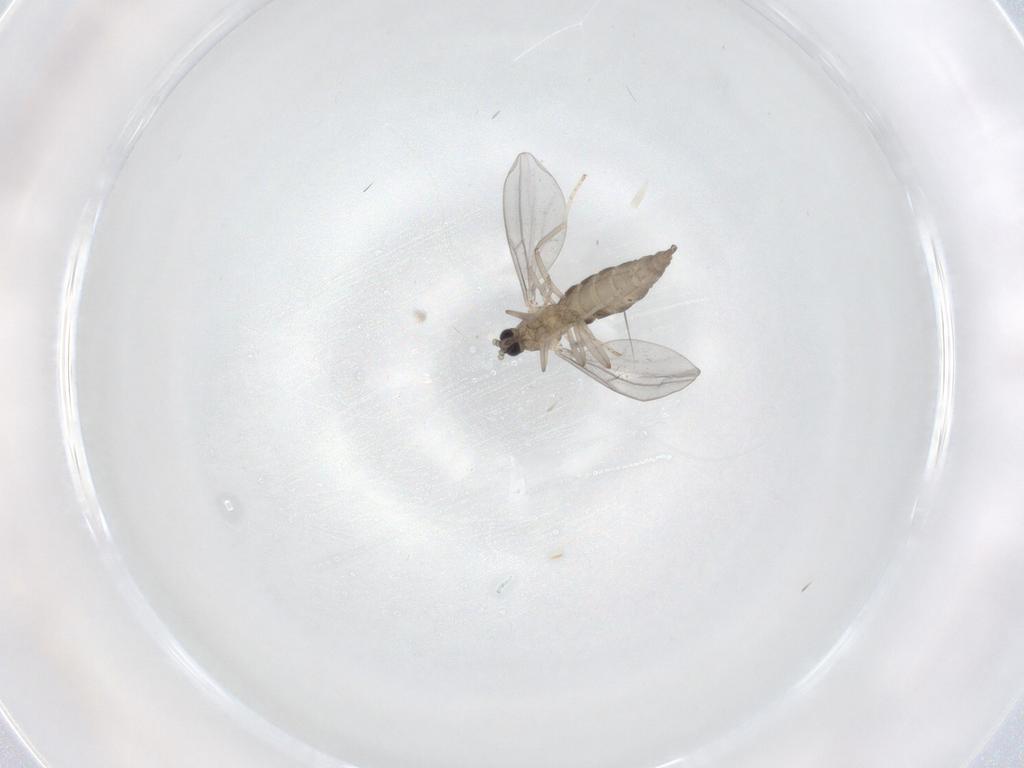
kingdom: Animalia
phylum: Arthropoda
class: Insecta
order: Diptera
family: Cecidomyiidae
